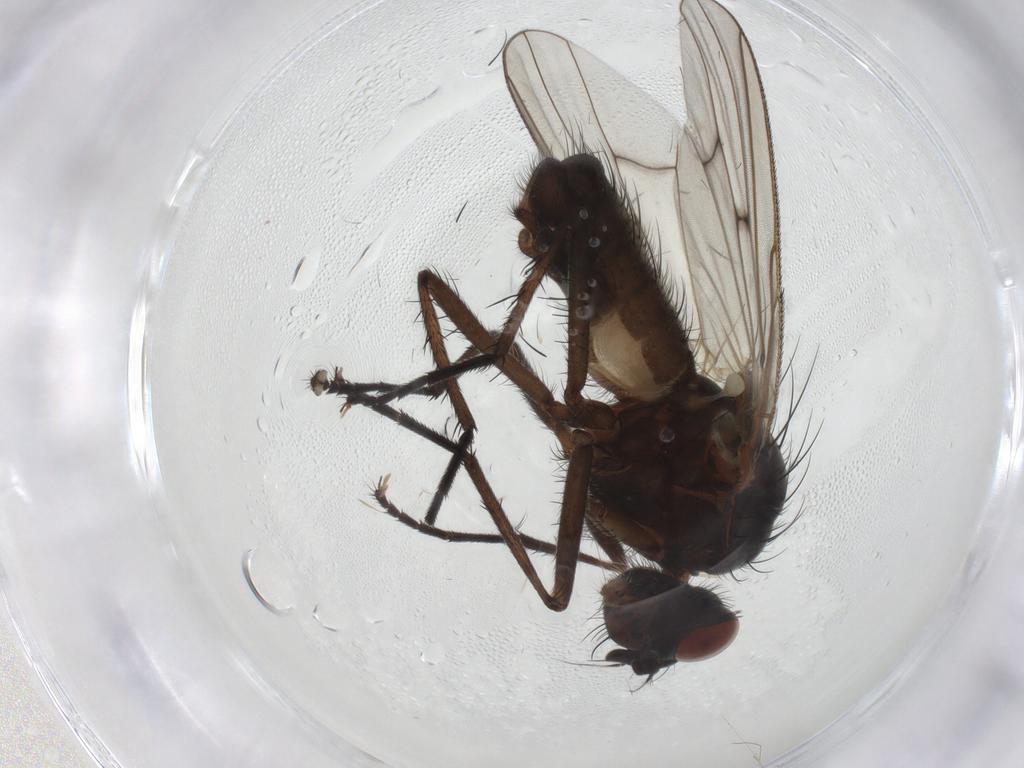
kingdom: Animalia
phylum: Arthropoda
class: Insecta
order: Diptera
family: Anthomyiidae
